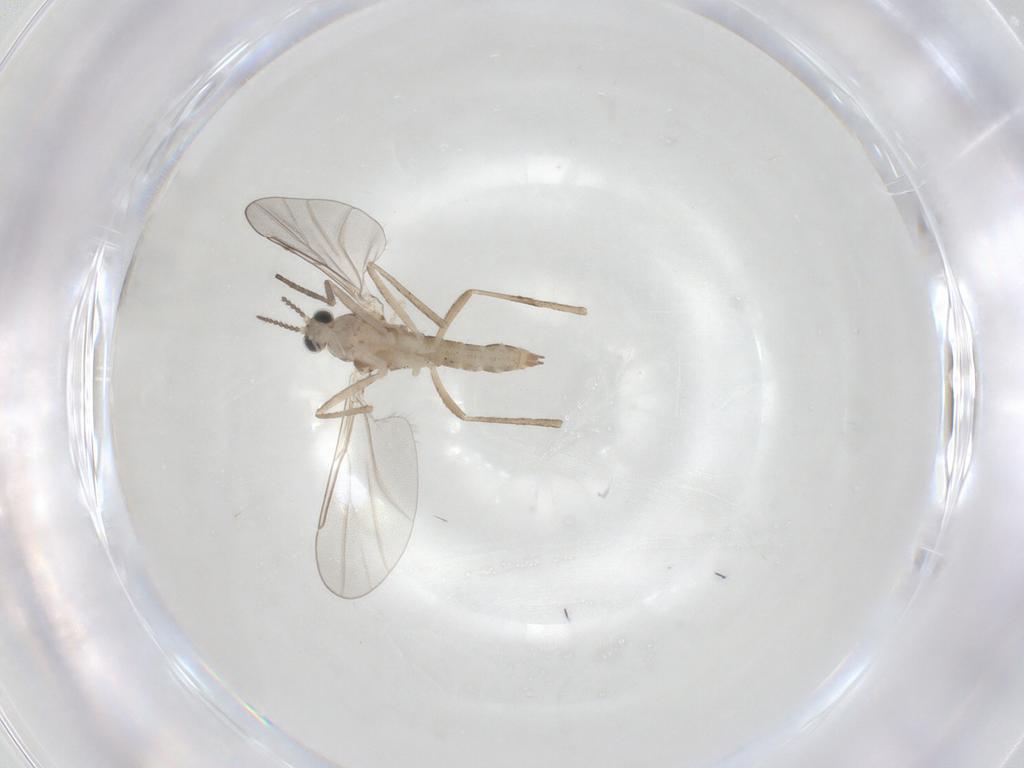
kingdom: Animalia
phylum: Arthropoda
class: Insecta
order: Diptera
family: Cecidomyiidae
